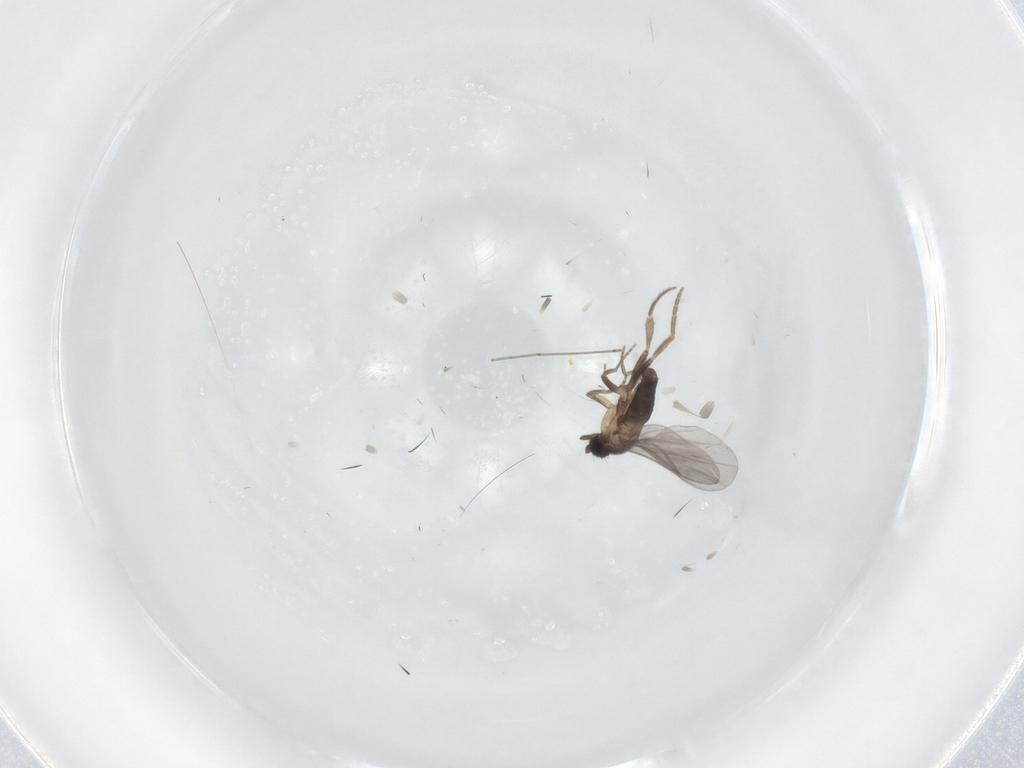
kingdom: Animalia
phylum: Arthropoda
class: Insecta
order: Diptera
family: Cecidomyiidae
